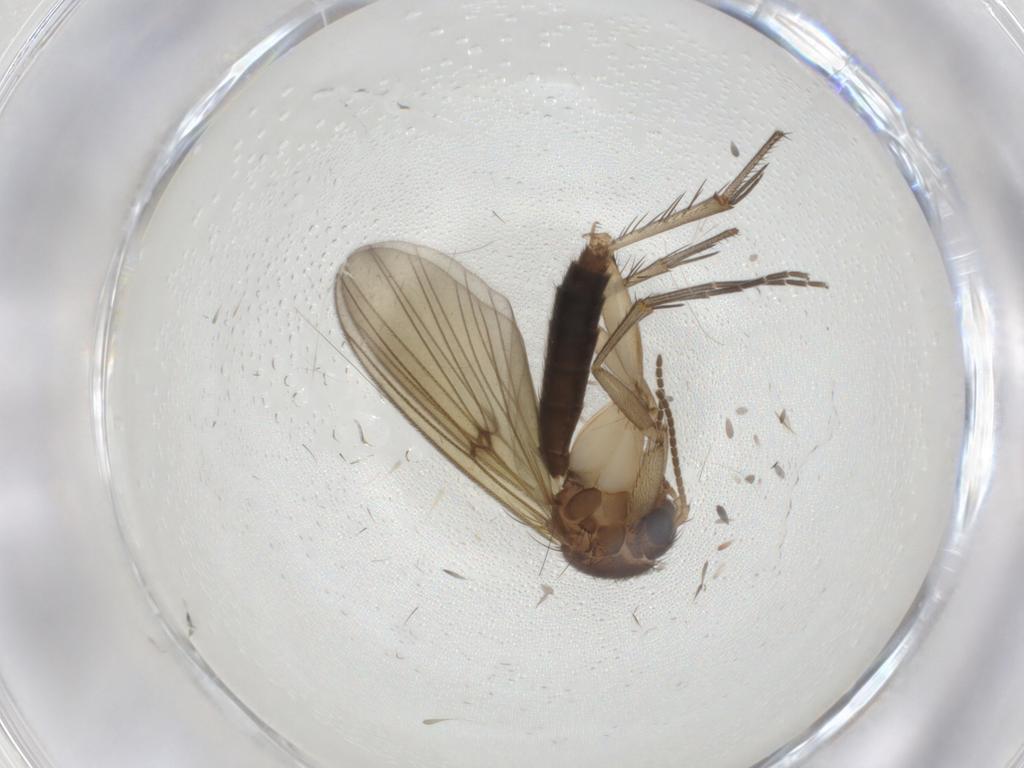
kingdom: Animalia
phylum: Arthropoda
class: Insecta
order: Diptera
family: Mycetophilidae
